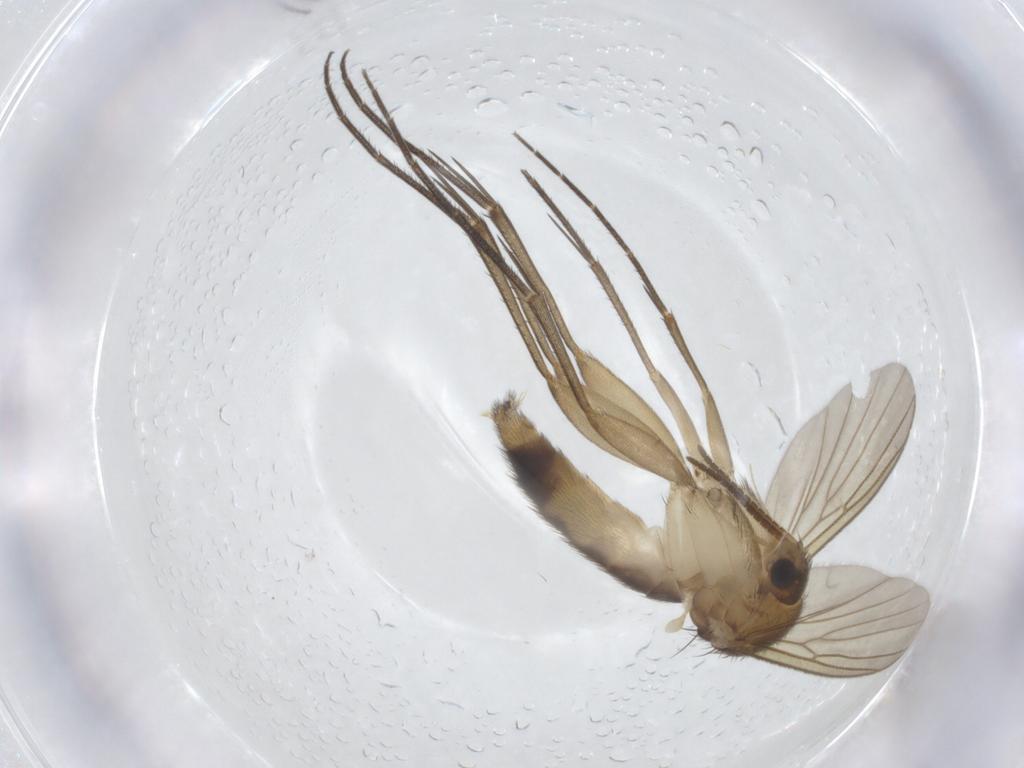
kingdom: Animalia
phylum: Arthropoda
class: Insecta
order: Diptera
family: Mycetophilidae
